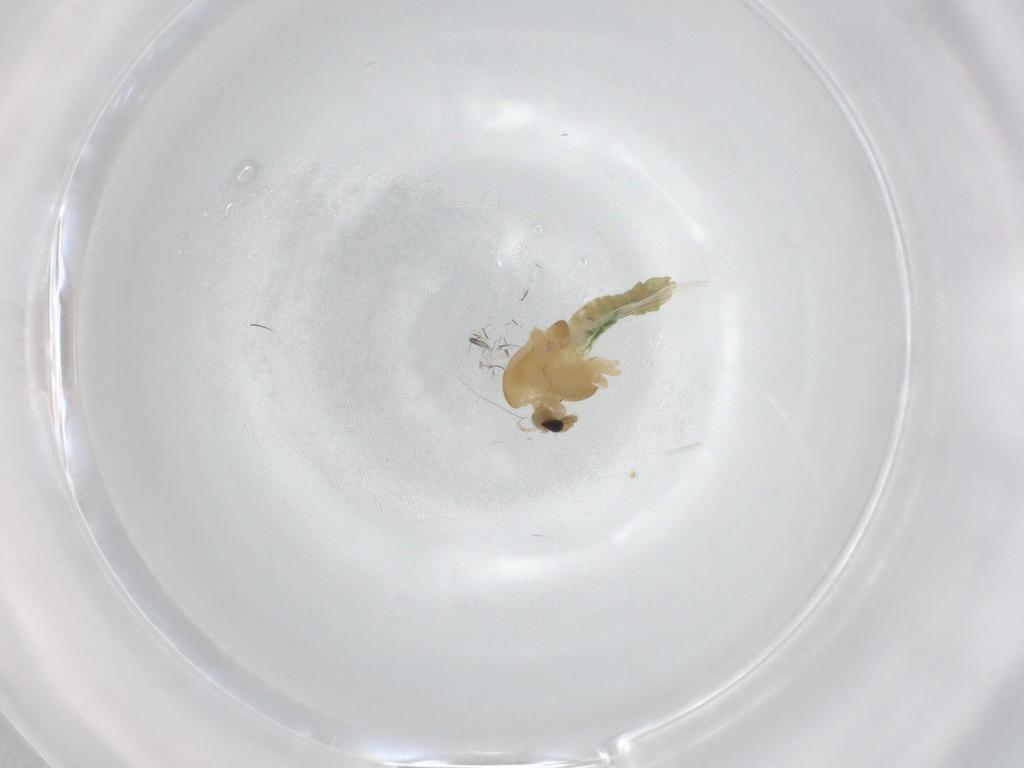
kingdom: Animalia
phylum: Arthropoda
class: Insecta
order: Diptera
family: Chironomidae
